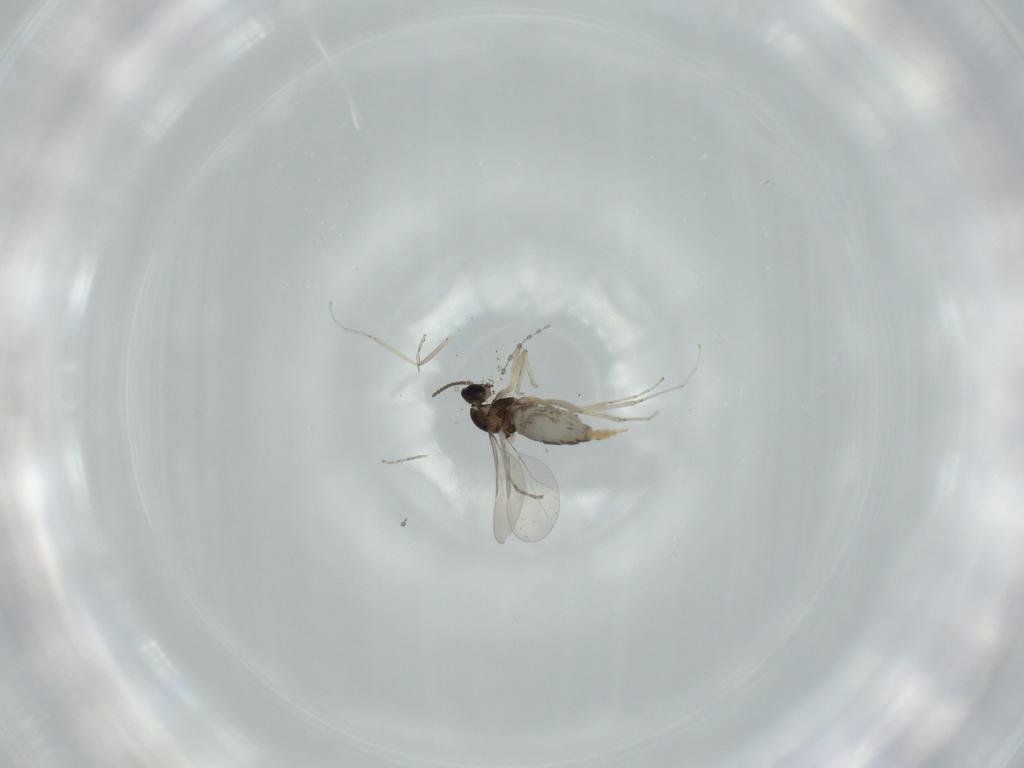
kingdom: Animalia
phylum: Arthropoda
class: Insecta
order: Diptera
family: Cecidomyiidae
